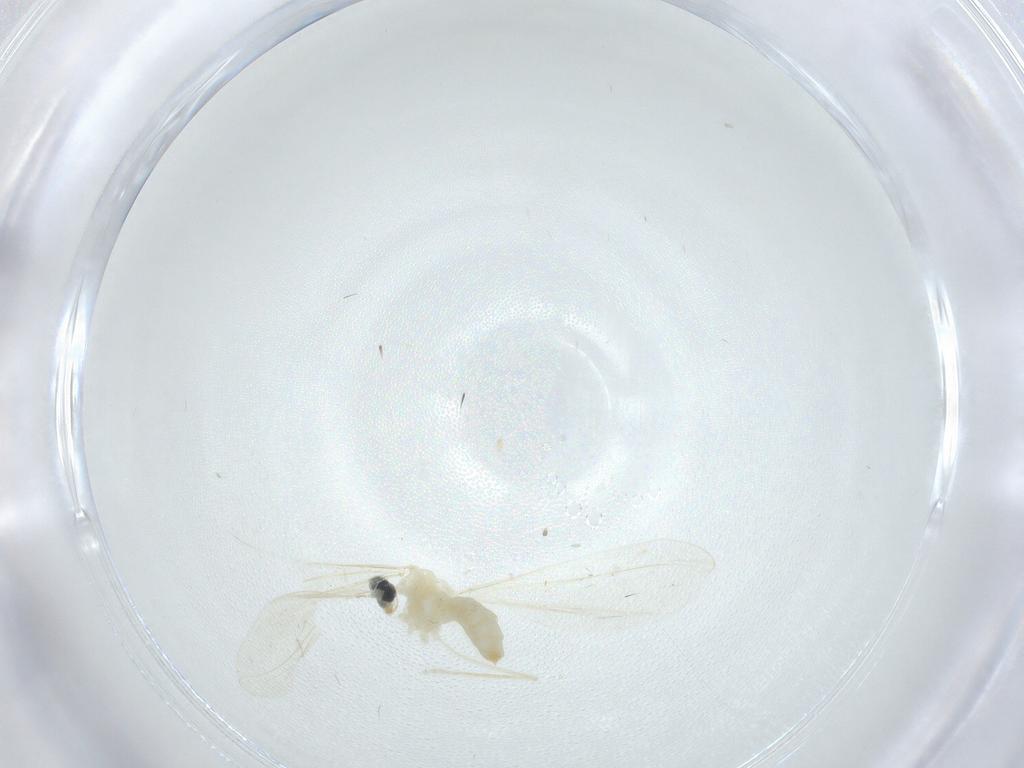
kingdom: Animalia
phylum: Arthropoda
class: Insecta
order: Diptera
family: Cecidomyiidae
